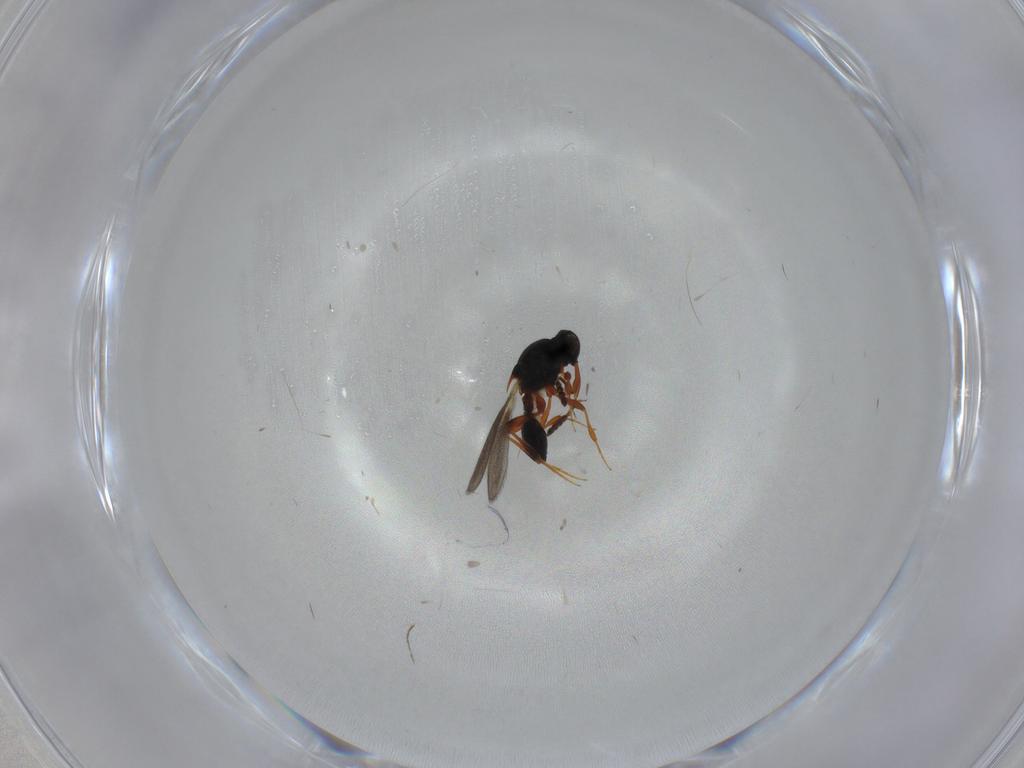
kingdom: Animalia
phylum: Arthropoda
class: Insecta
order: Hymenoptera
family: Platygastridae
